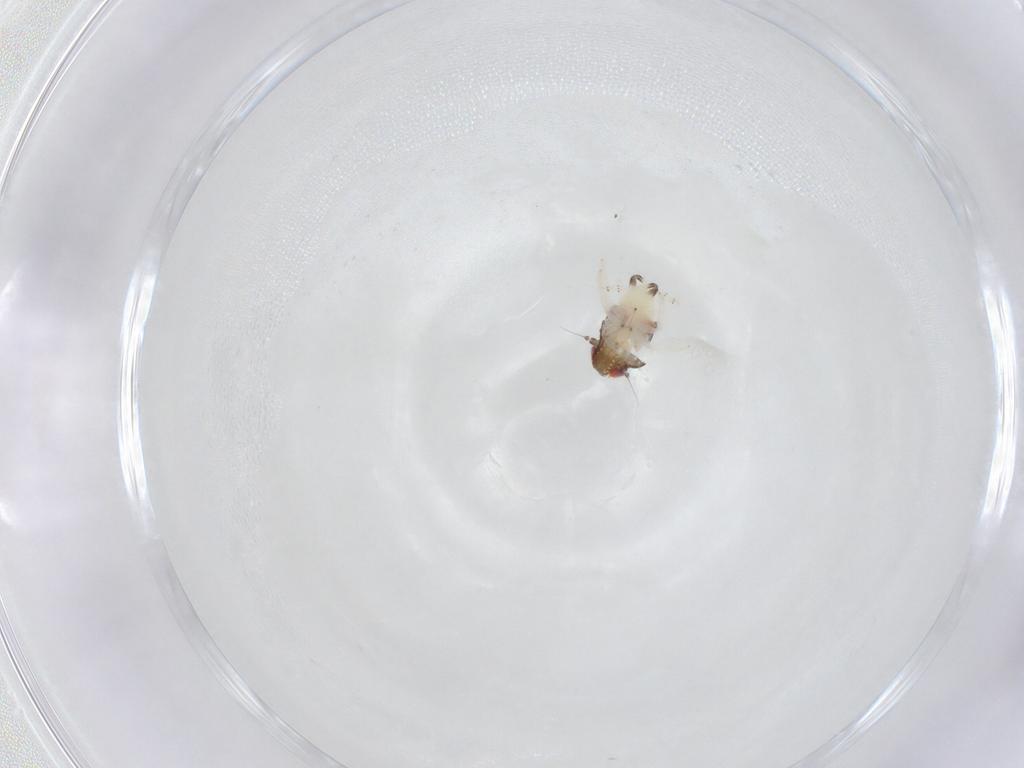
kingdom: Animalia
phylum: Arthropoda
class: Insecta
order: Hemiptera
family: Nogodinidae
